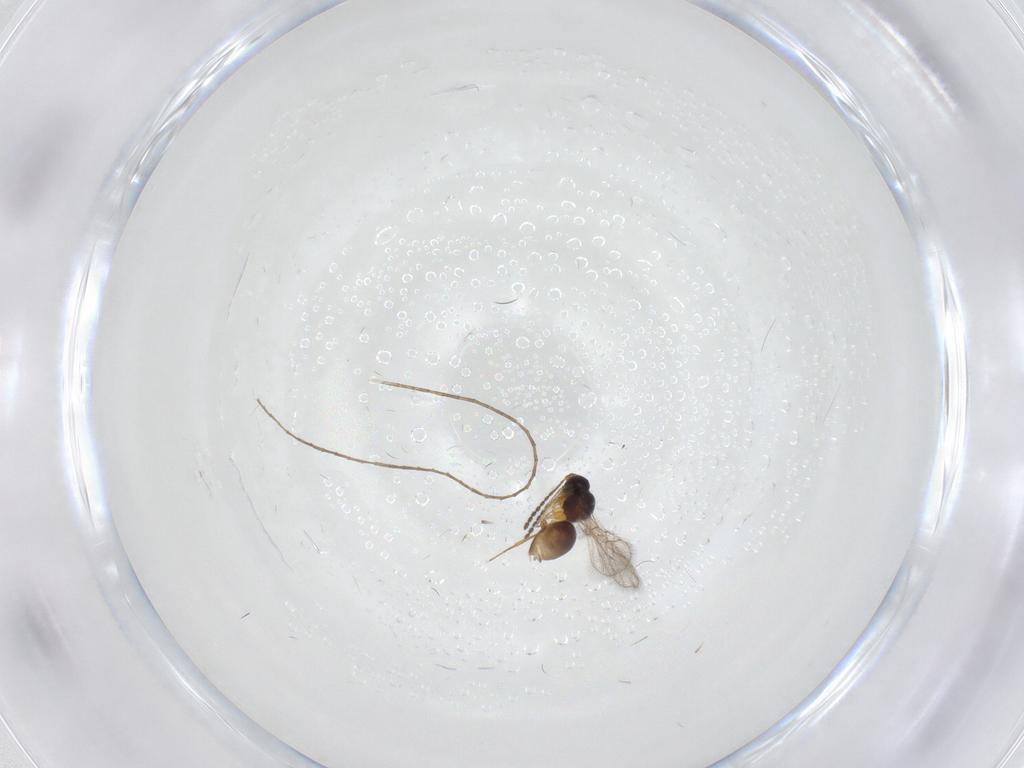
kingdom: Animalia
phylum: Arthropoda
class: Insecta
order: Hymenoptera
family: Figitidae
